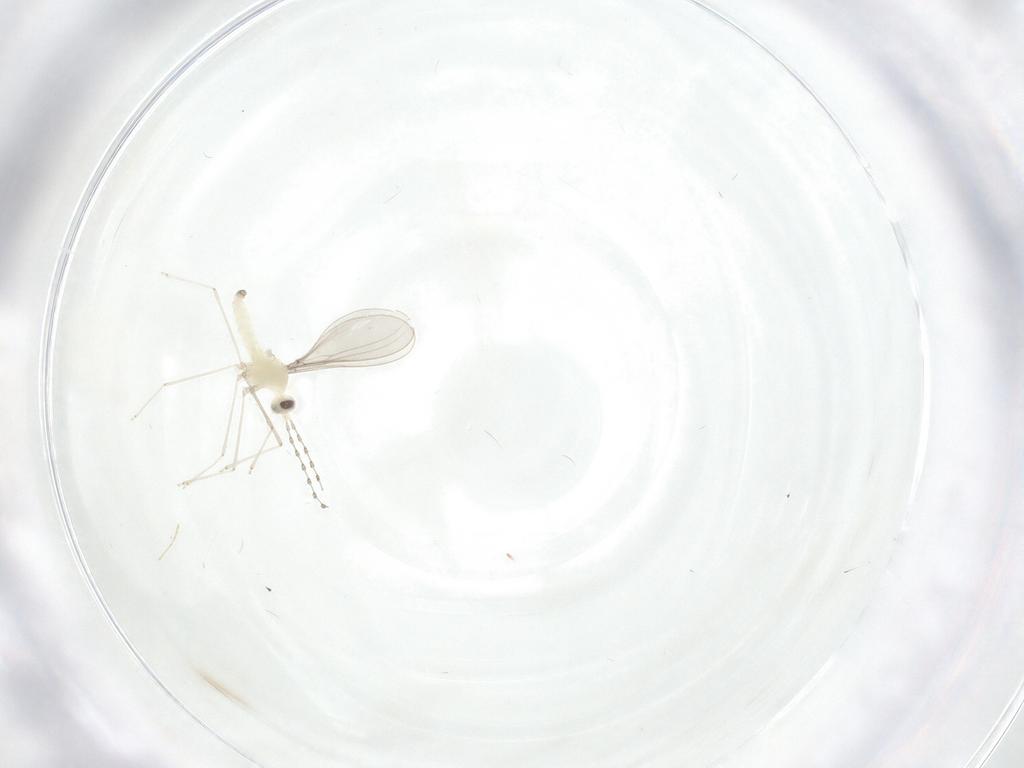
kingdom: Animalia
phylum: Arthropoda
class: Insecta
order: Diptera
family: Cecidomyiidae
